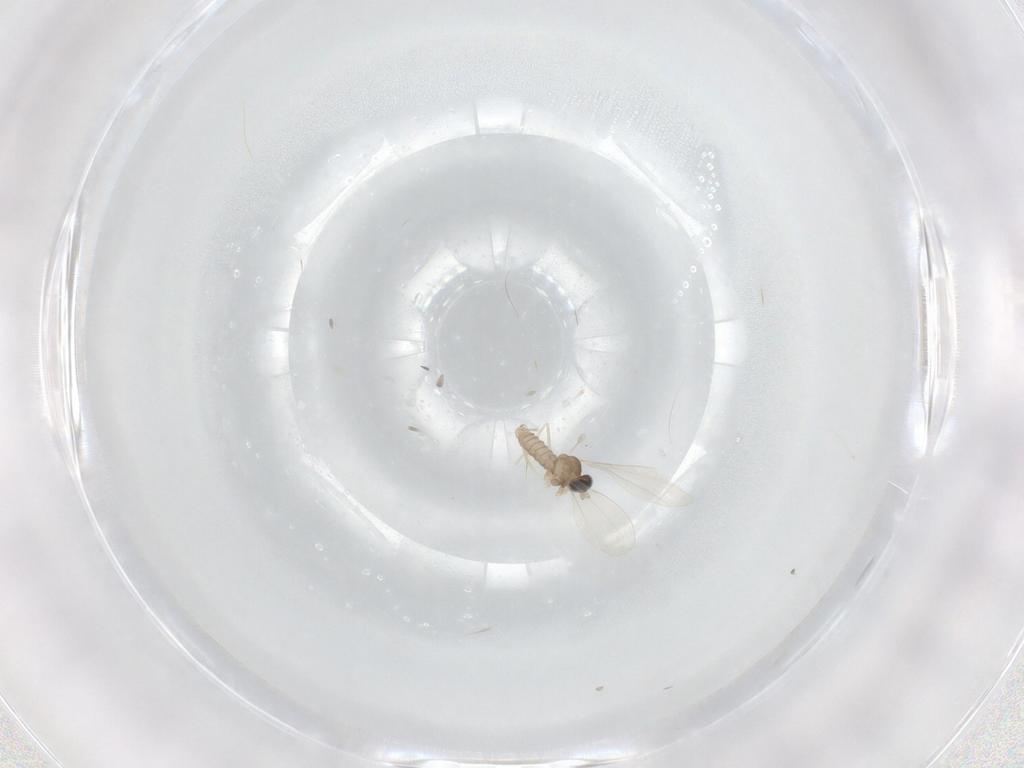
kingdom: Animalia
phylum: Arthropoda
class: Insecta
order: Diptera
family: Cecidomyiidae
